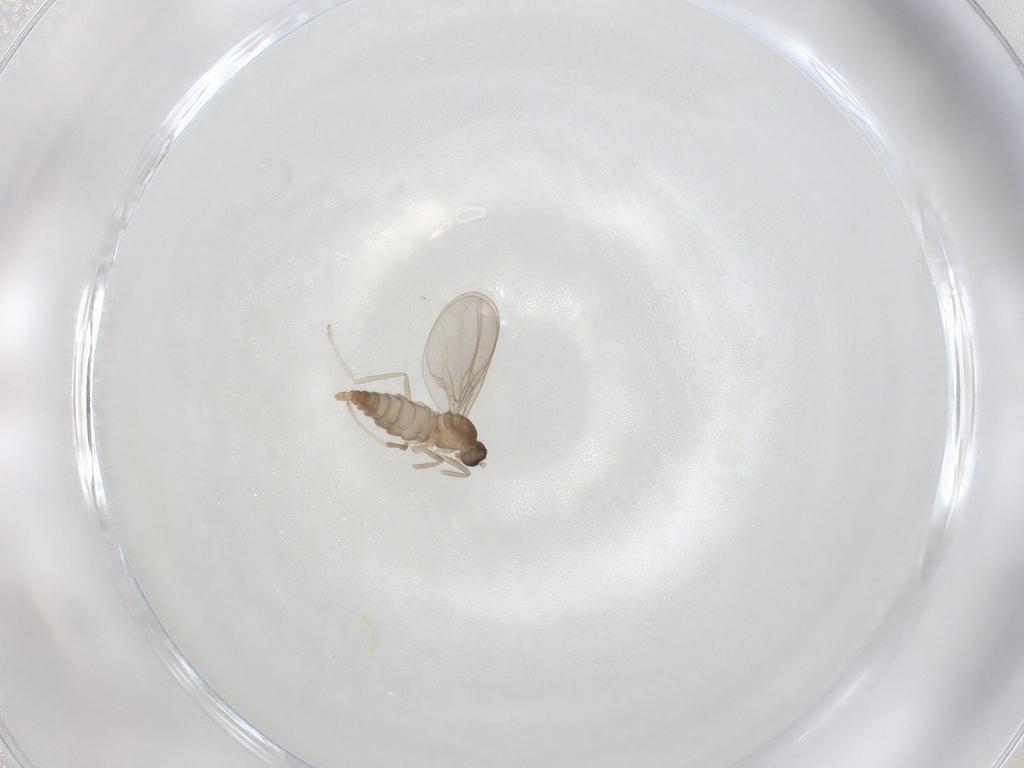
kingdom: Animalia
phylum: Arthropoda
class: Insecta
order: Diptera
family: Cecidomyiidae
